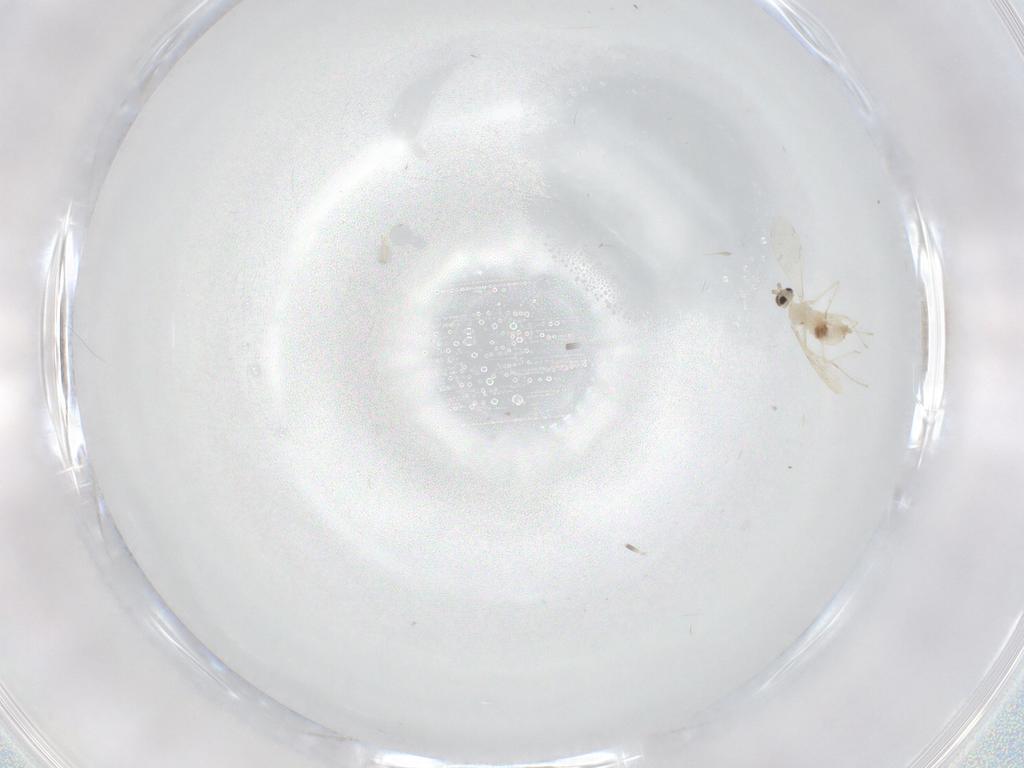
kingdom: Animalia
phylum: Arthropoda
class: Insecta
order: Diptera
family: Cecidomyiidae
